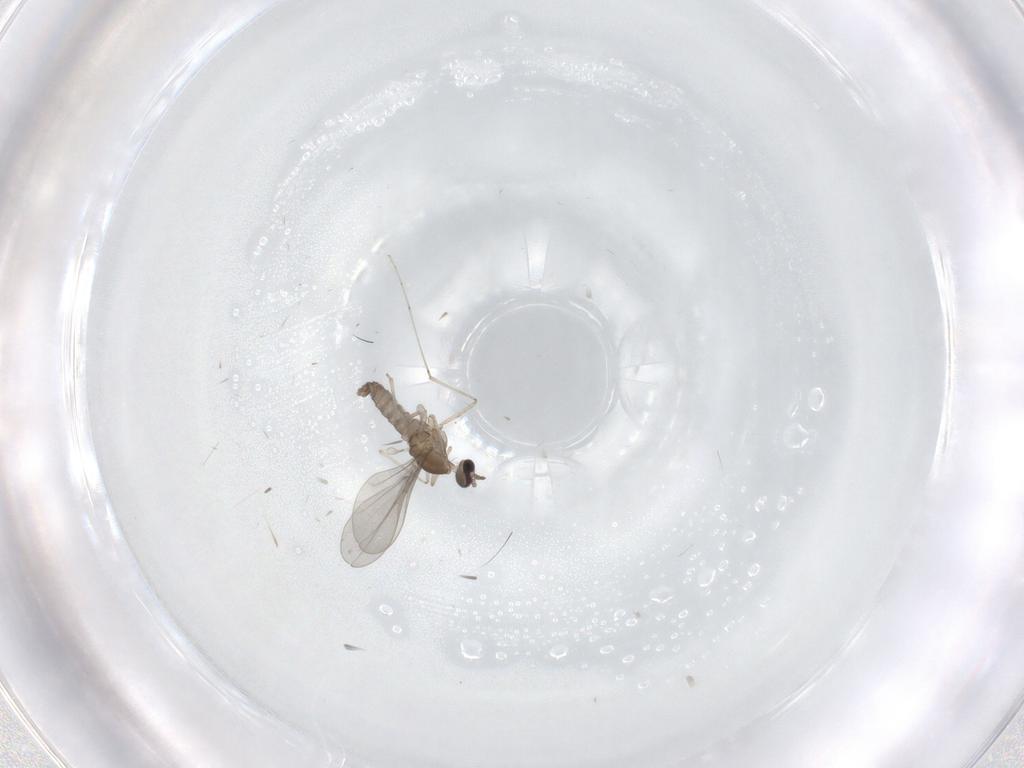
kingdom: Animalia
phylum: Arthropoda
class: Insecta
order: Diptera
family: Cecidomyiidae
